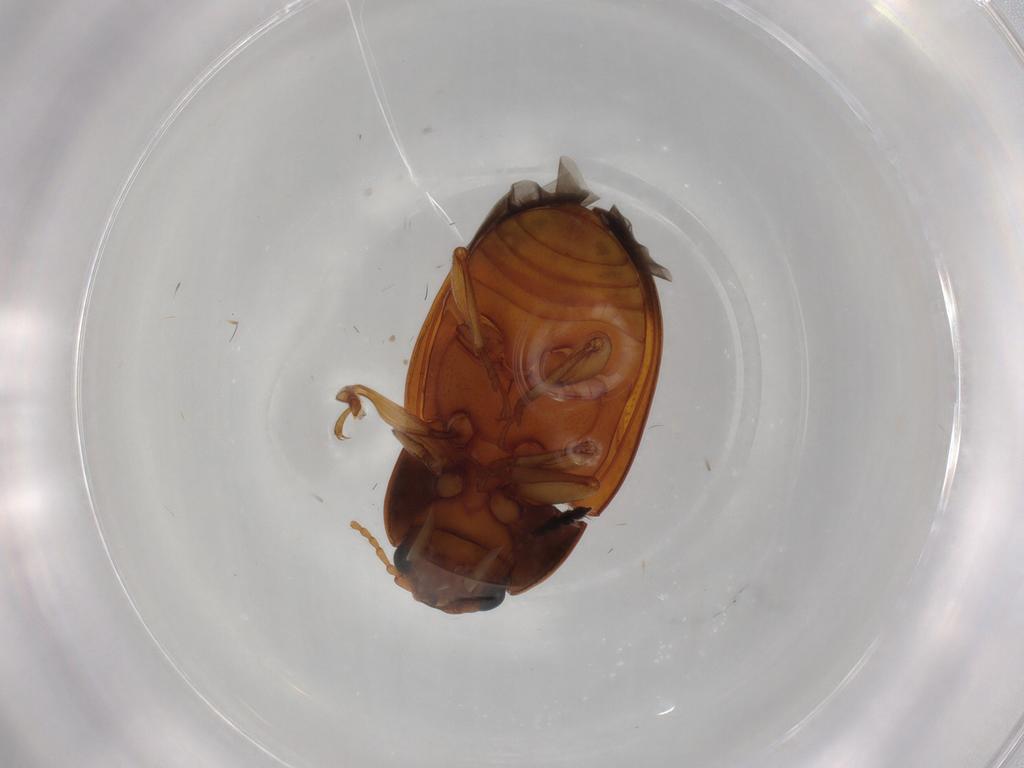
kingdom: Animalia
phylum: Arthropoda
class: Insecta
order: Coleoptera
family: Erotylidae
